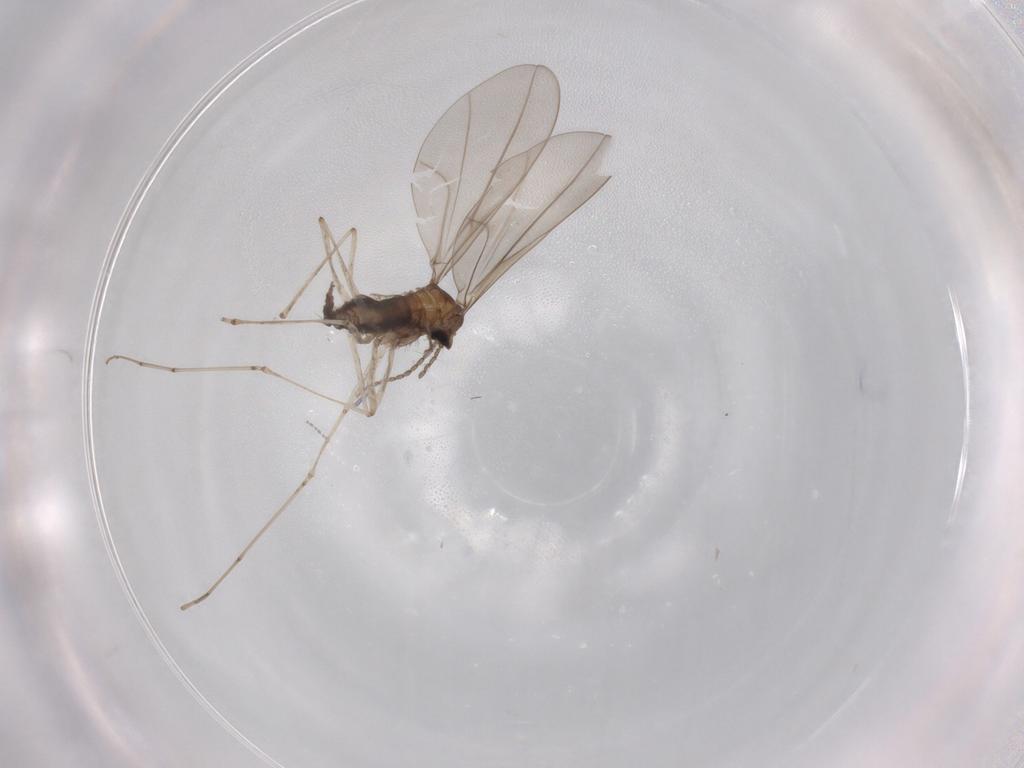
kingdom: Animalia
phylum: Arthropoda
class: Insecta
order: Diptera
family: Cecidomyiidae
